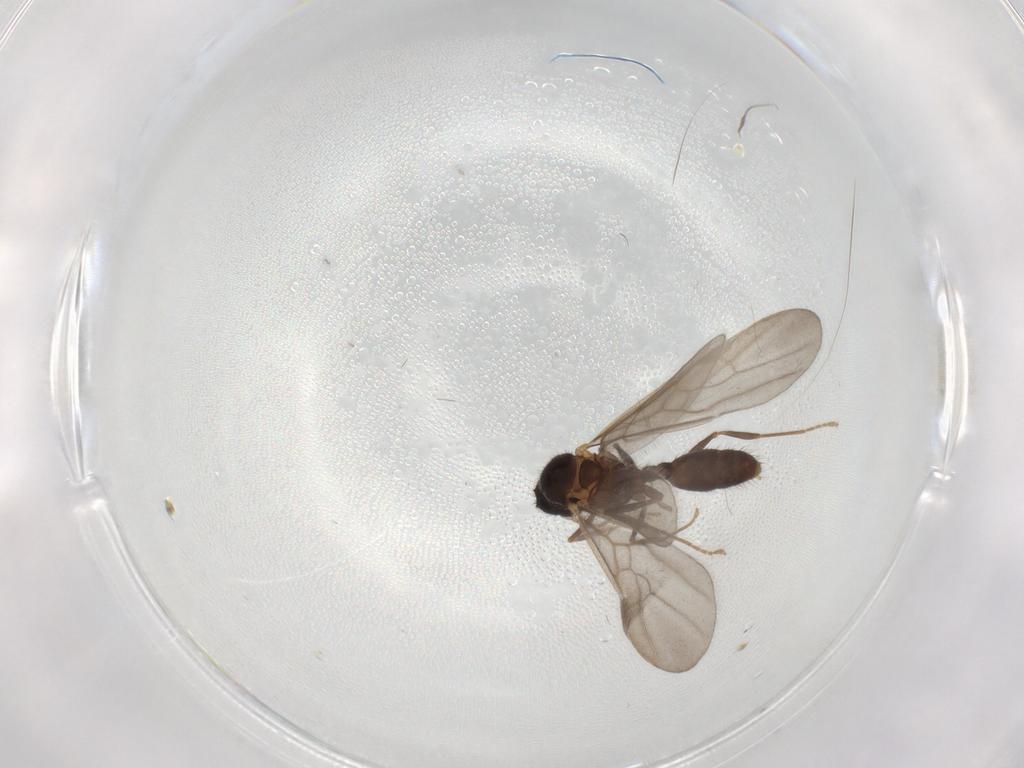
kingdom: Animalia
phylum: Arthropoda
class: Insecta
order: Hymenoptera
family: Formicidae
